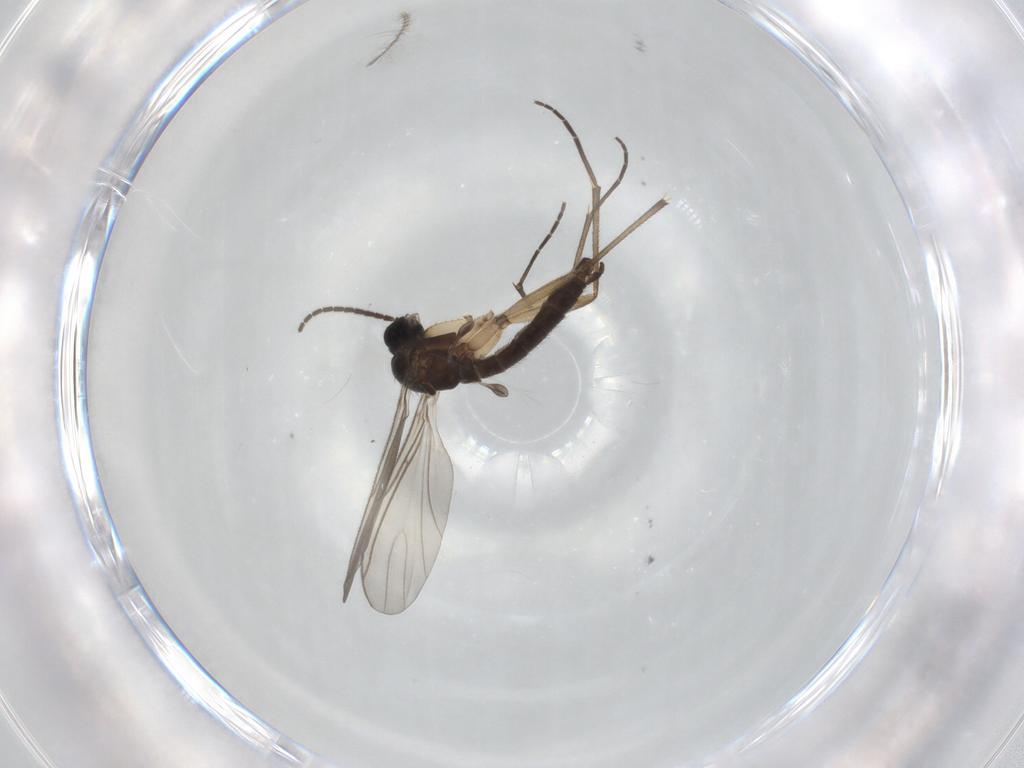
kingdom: Animalia
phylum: Arthropoda
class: Insecta
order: Diptera
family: Sciaridae
